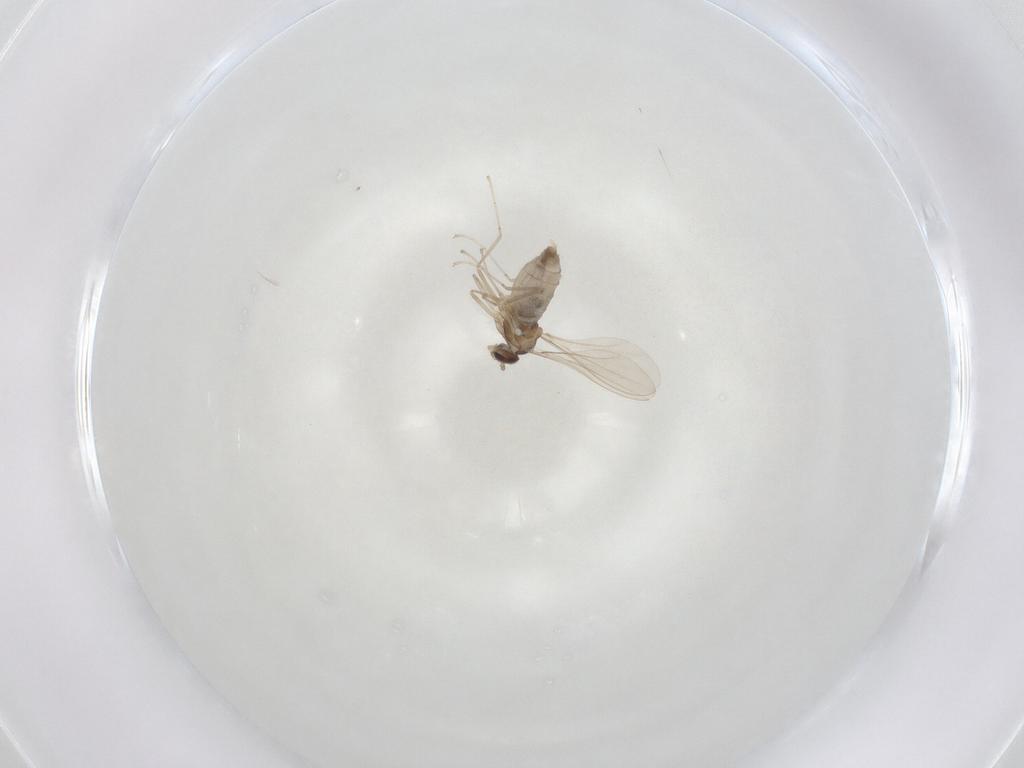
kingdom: Animalia
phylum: Arthropoda
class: Insecta
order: Diptera
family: Cecidomyiidae
